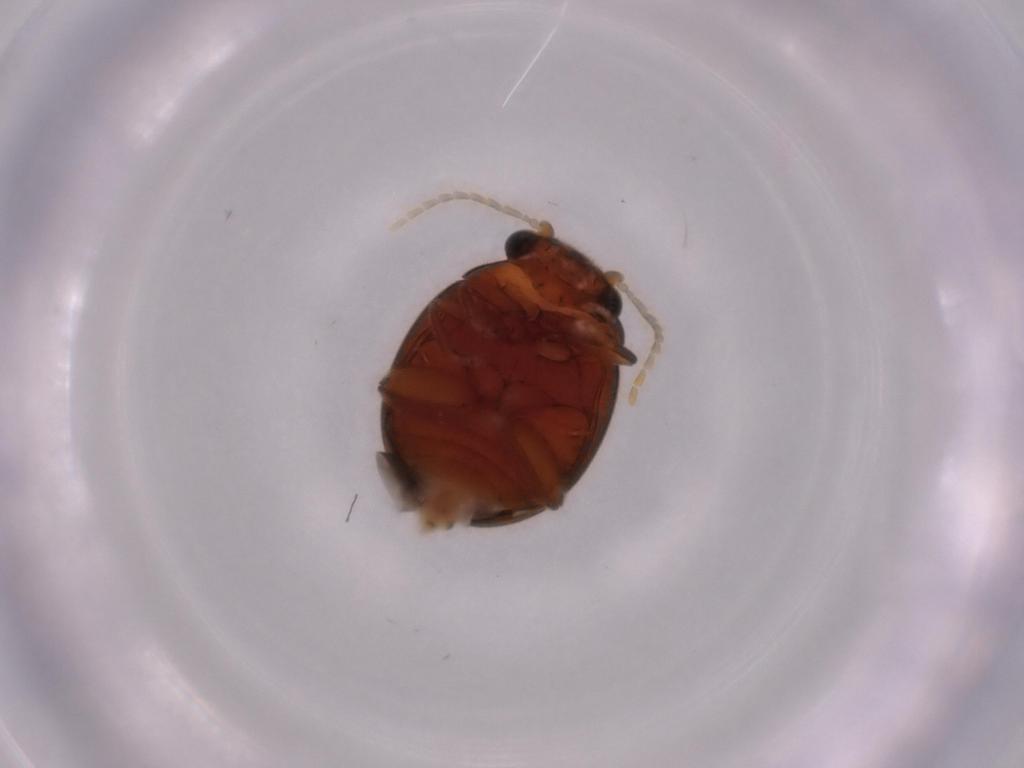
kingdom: Animalia
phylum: Arthropoda
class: Insecta
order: Coleoptera
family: Scirtidae
